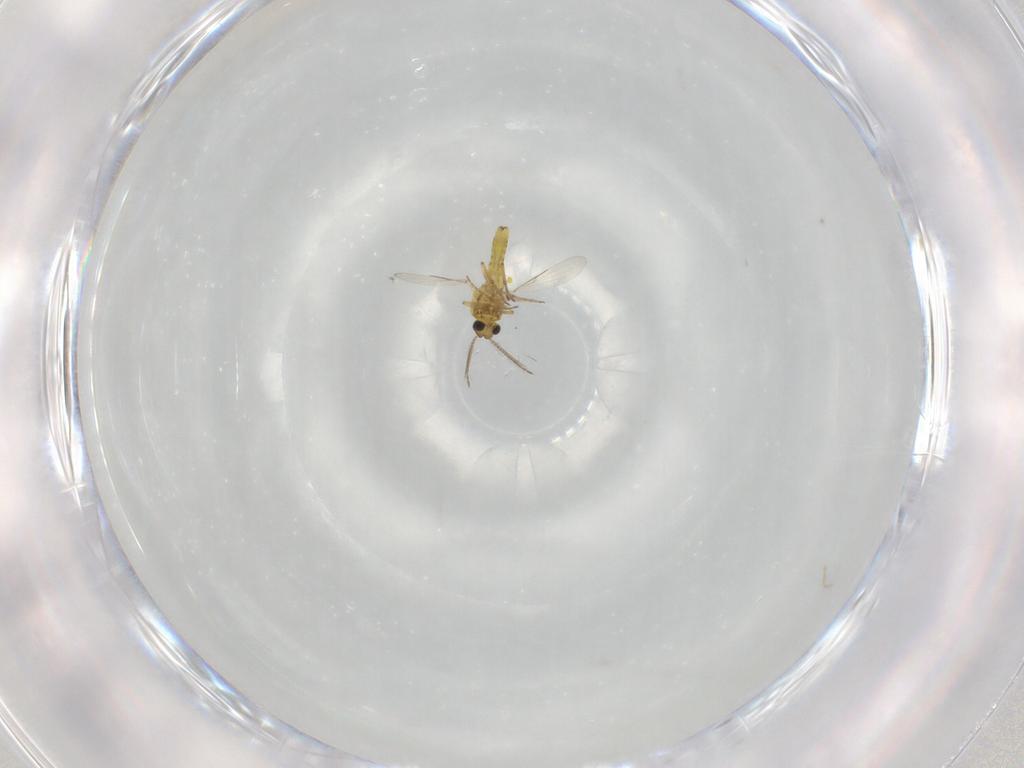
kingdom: Animalia
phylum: Arthropoda
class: Insecta
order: Diptera
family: Ceratopogonidae
